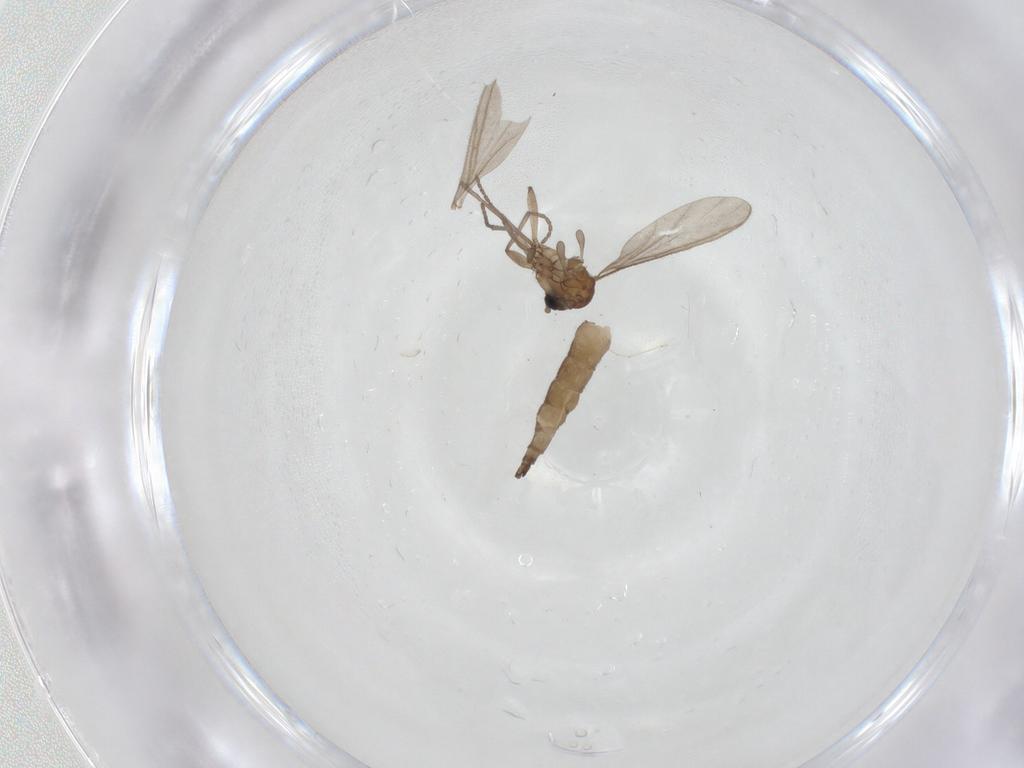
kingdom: Animalia
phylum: Arthropoda
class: Insecta
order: Diptera
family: Sciaridae
